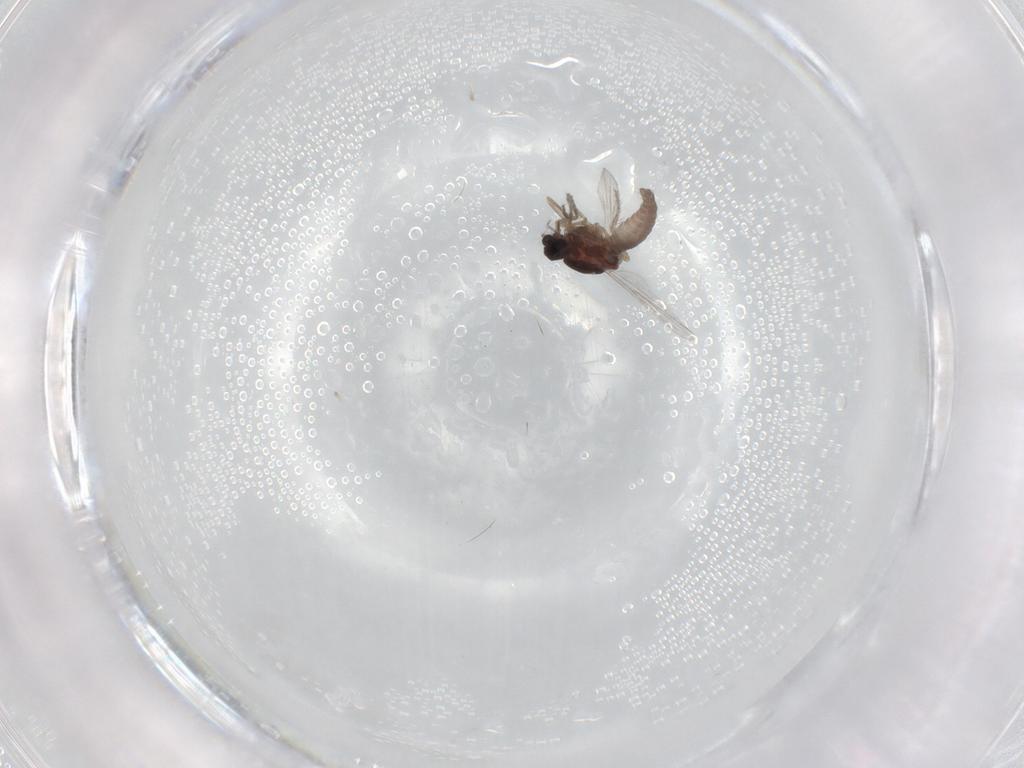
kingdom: Animalia
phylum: Arthropoda
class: Insecta
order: Diptera
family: Ceratopogonidae
